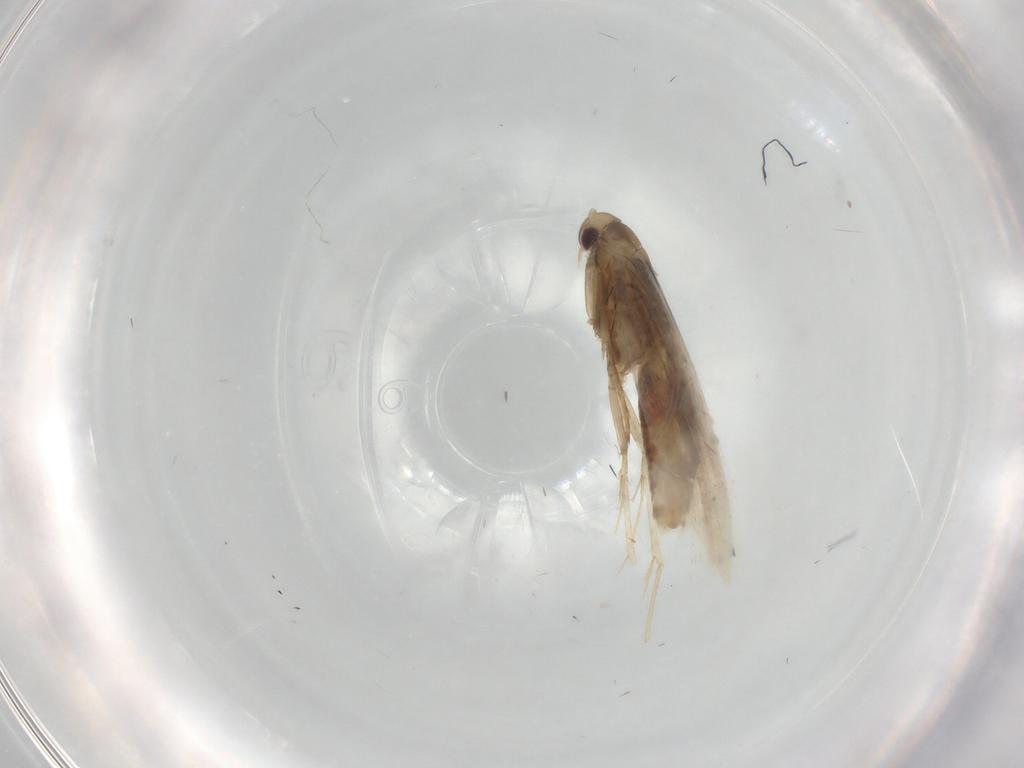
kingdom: Animalia
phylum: Arthropoda
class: Insecta
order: Lepidoptera
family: Gracillariidae
